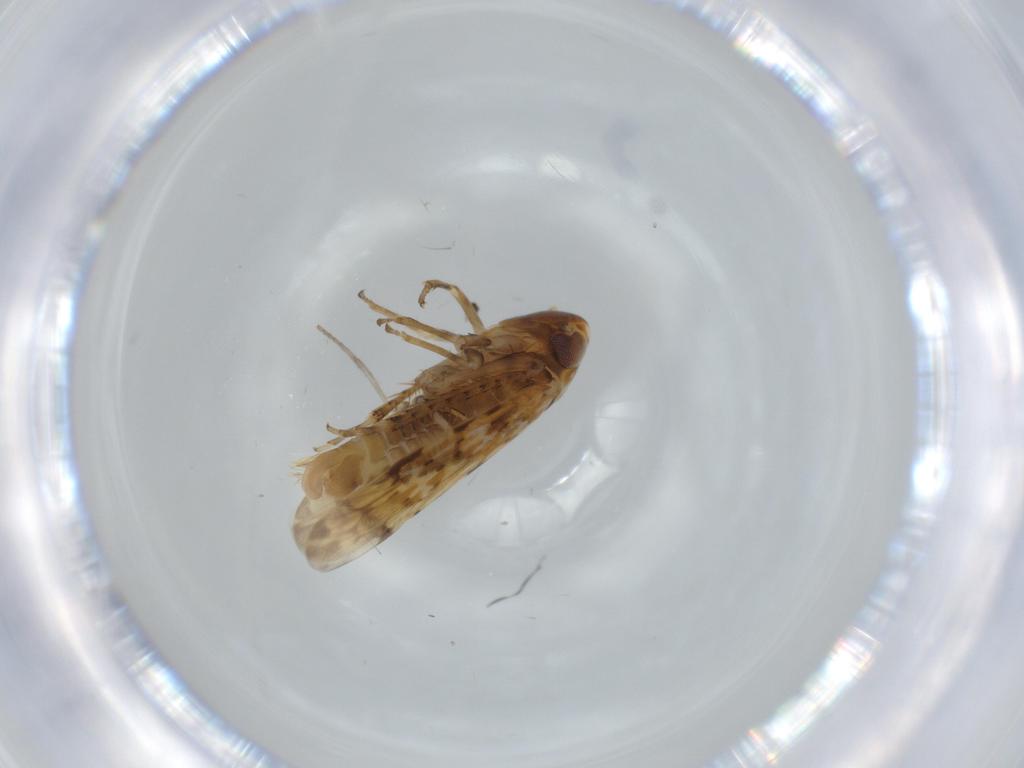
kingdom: Animalia
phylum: Arthropoda
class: Insecta
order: Hemiptera
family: Cicadellidae
